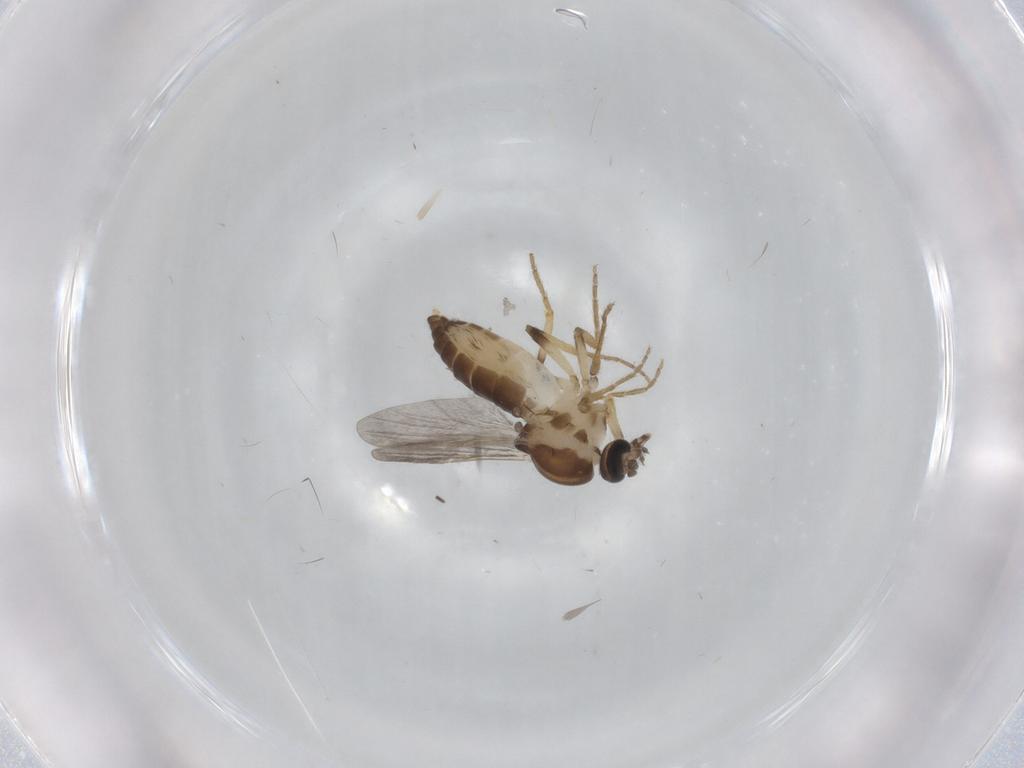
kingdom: Animalia
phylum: Arthropoda
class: Insecta
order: Diptera
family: Ceratopogonidae
